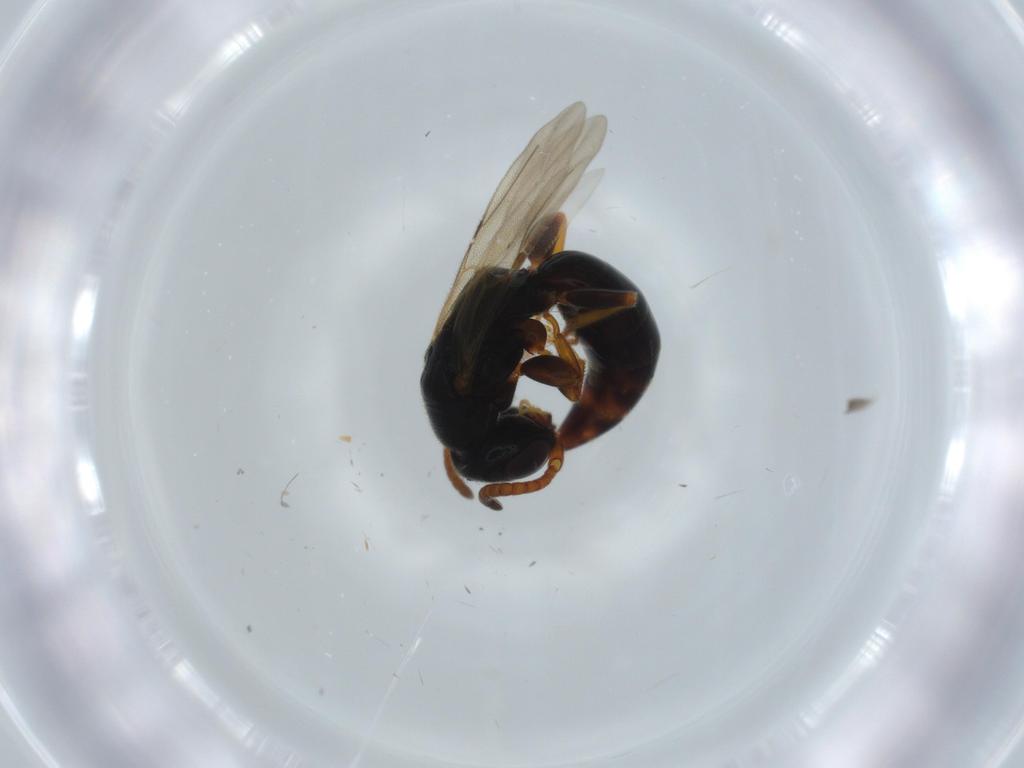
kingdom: Animalia
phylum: Arthropoda
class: Insecta
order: Hymenoptera
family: Bethylidae
